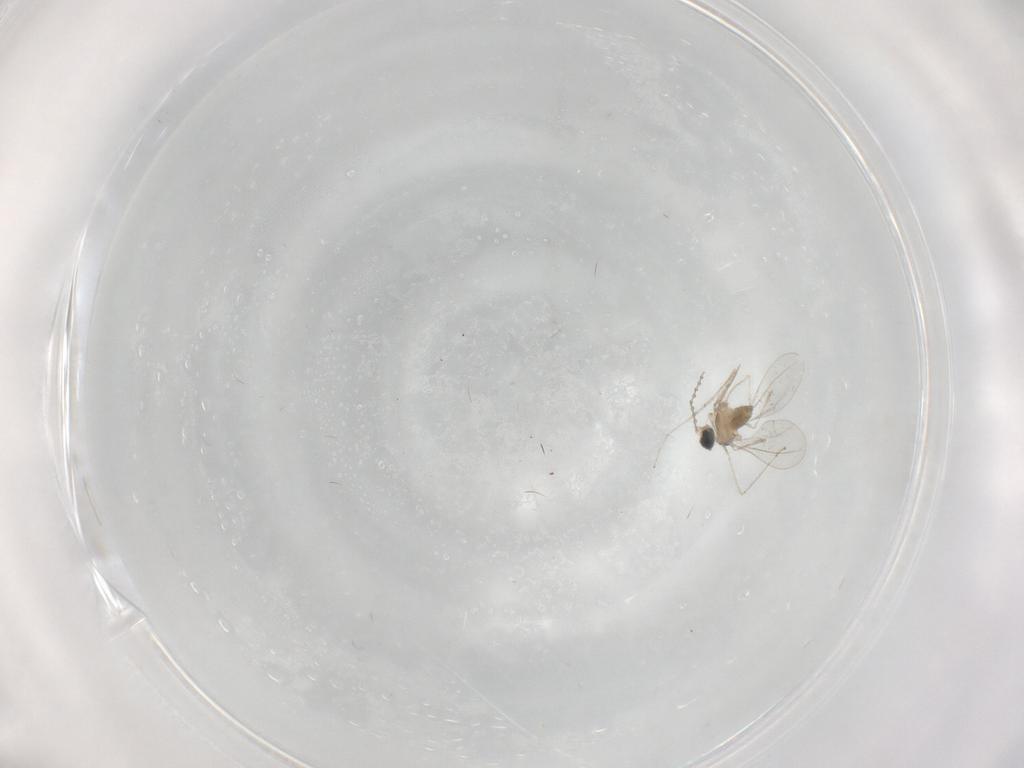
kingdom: Animalia
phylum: Arthropoda
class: Insecta
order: Diptera
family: Cecidomyiidae
